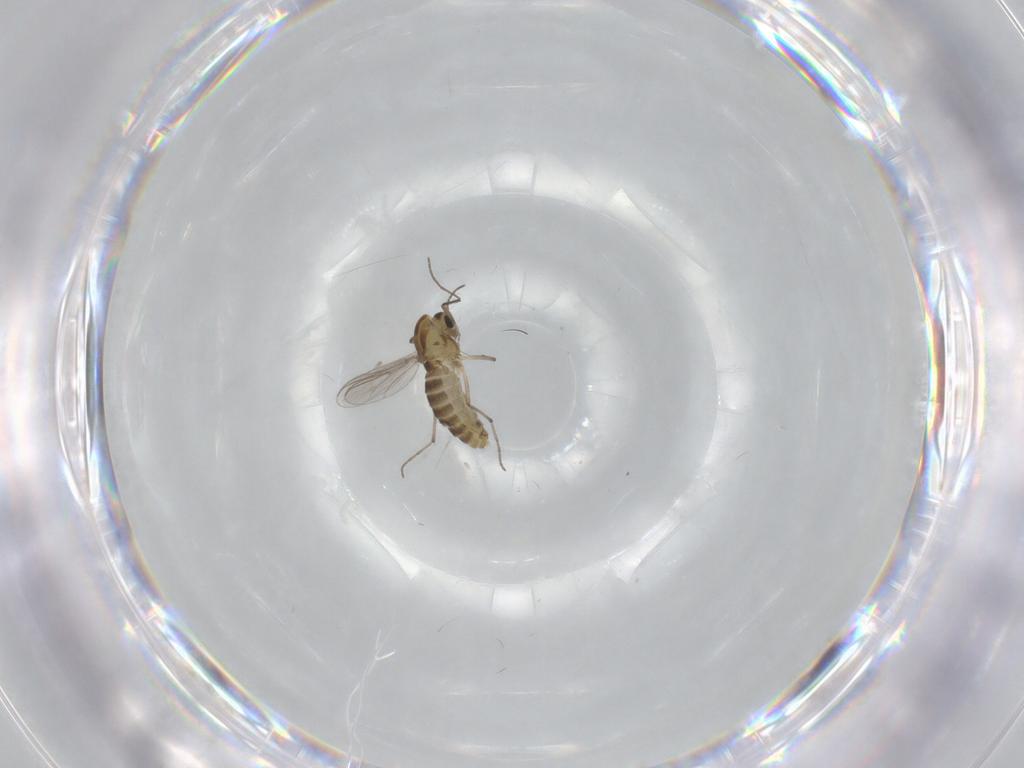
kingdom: Animalia
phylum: Arthropoda
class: Insecta
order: Diptera
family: Chironomidae
